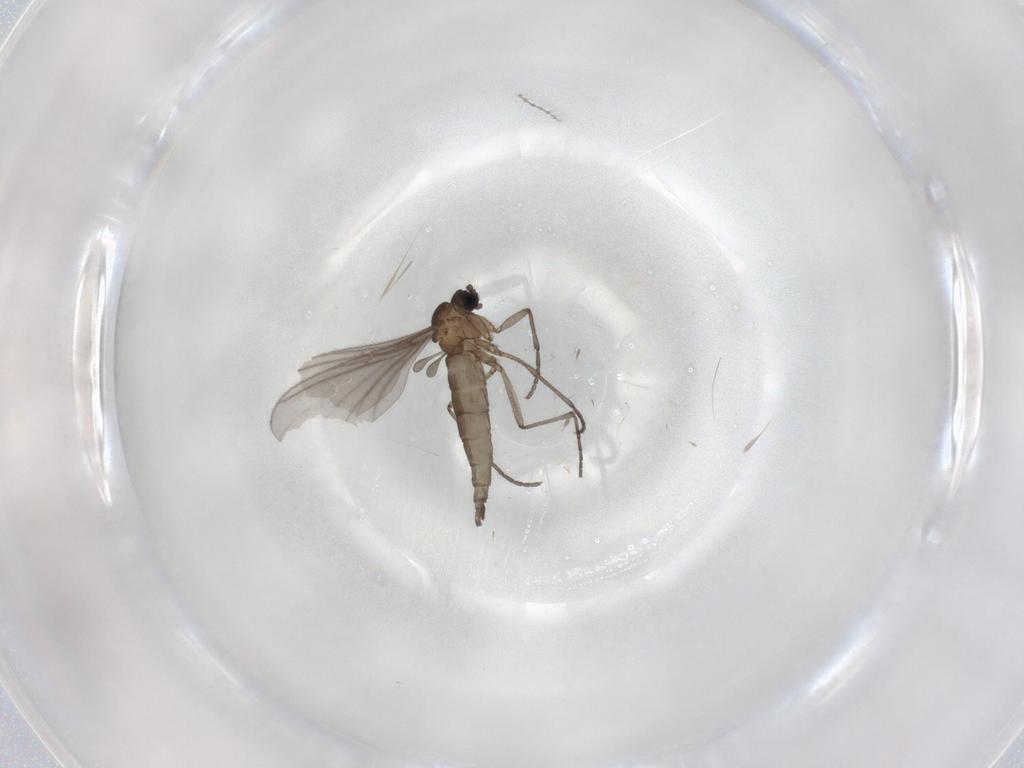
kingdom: Animalia
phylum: Arthropoda
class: Insecta
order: Diptera
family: Sciaridae
